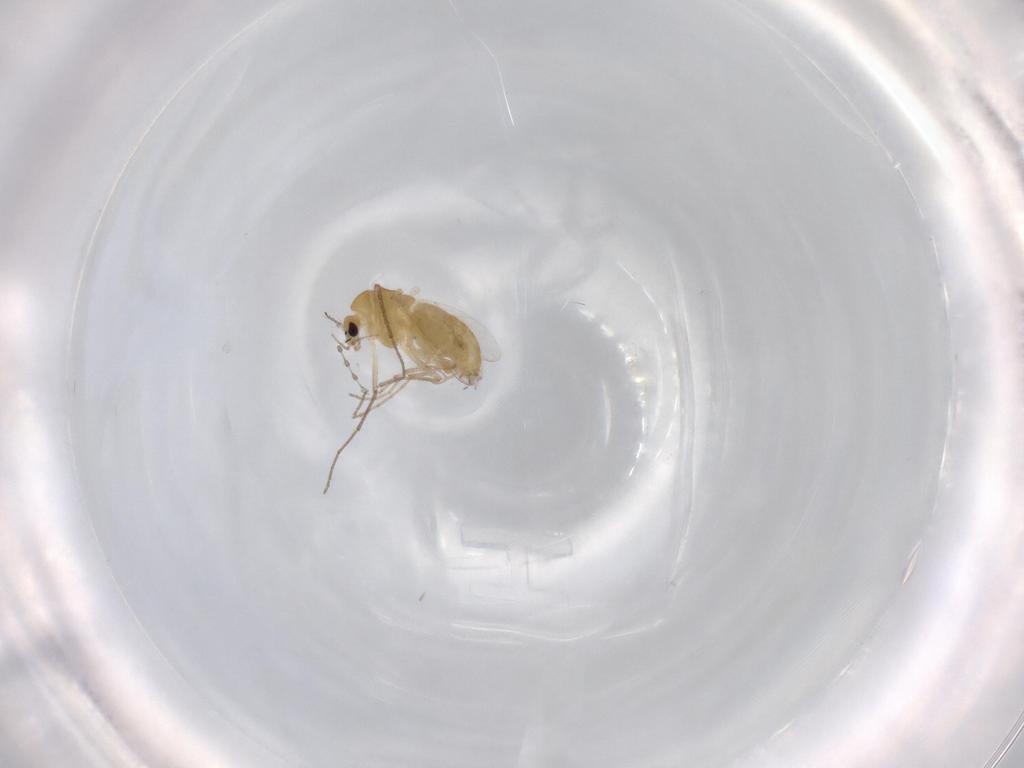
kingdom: Animalia
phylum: Arthropoda
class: Insecta
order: Diptera
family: Chironomidae
